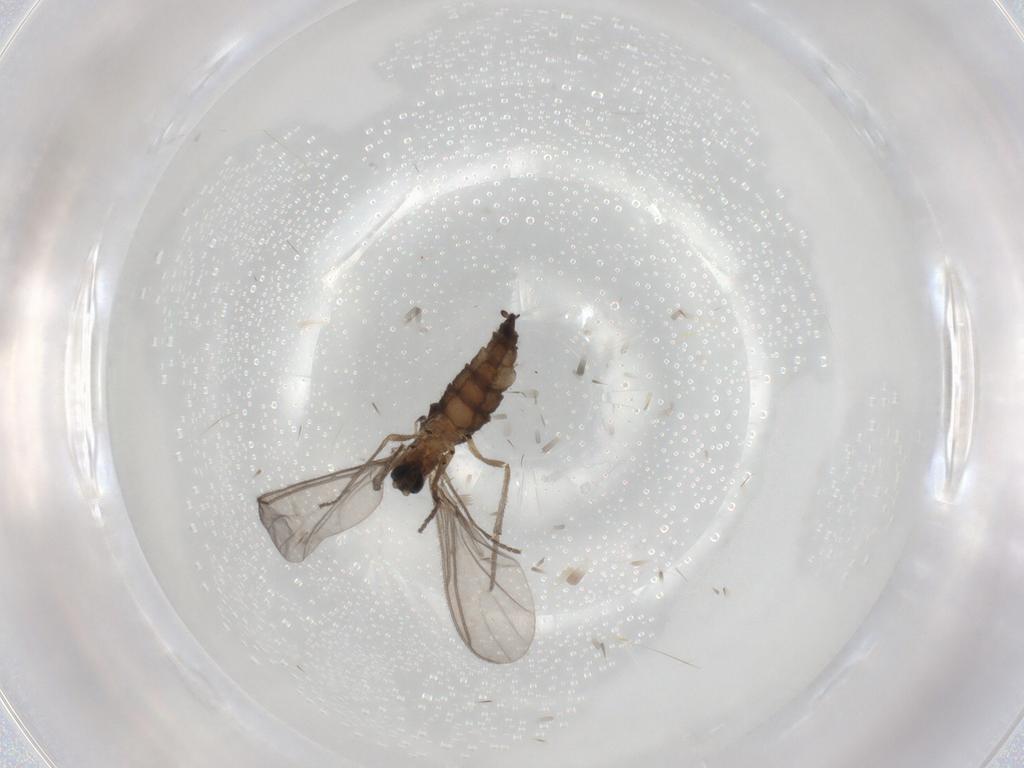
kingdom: Animalia
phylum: Arthropoda
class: Insecta
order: Diptera
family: Sciaridae
